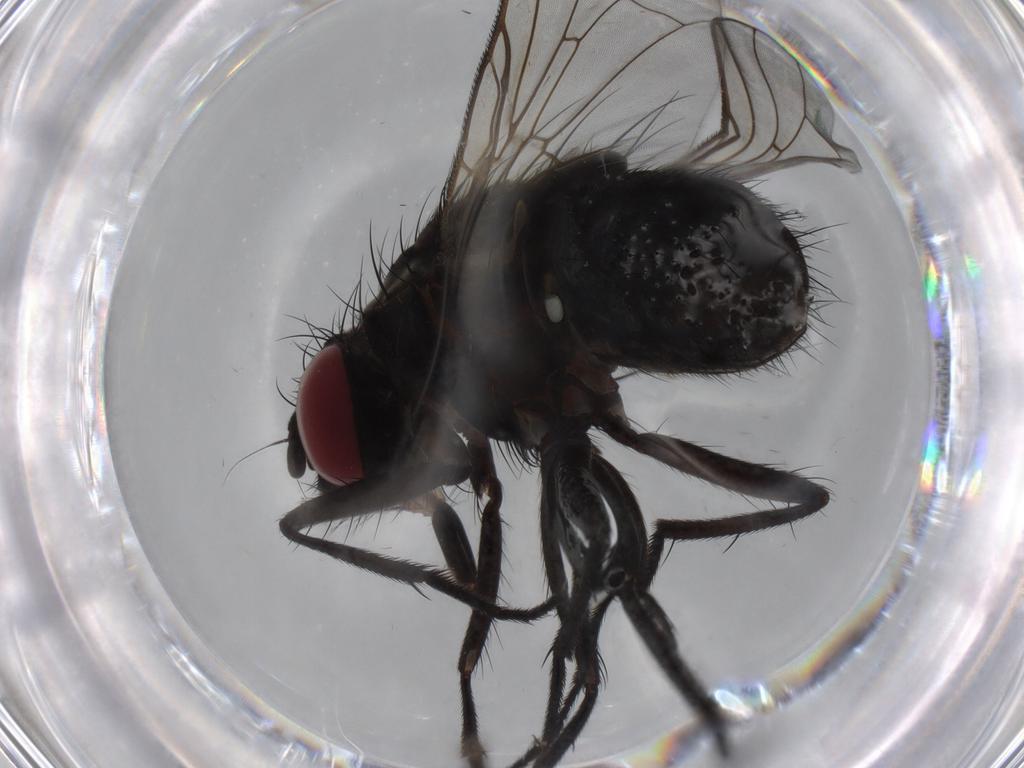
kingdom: Animalia
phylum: Arthropoda
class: Insecta
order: Diptera
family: Muscidae
